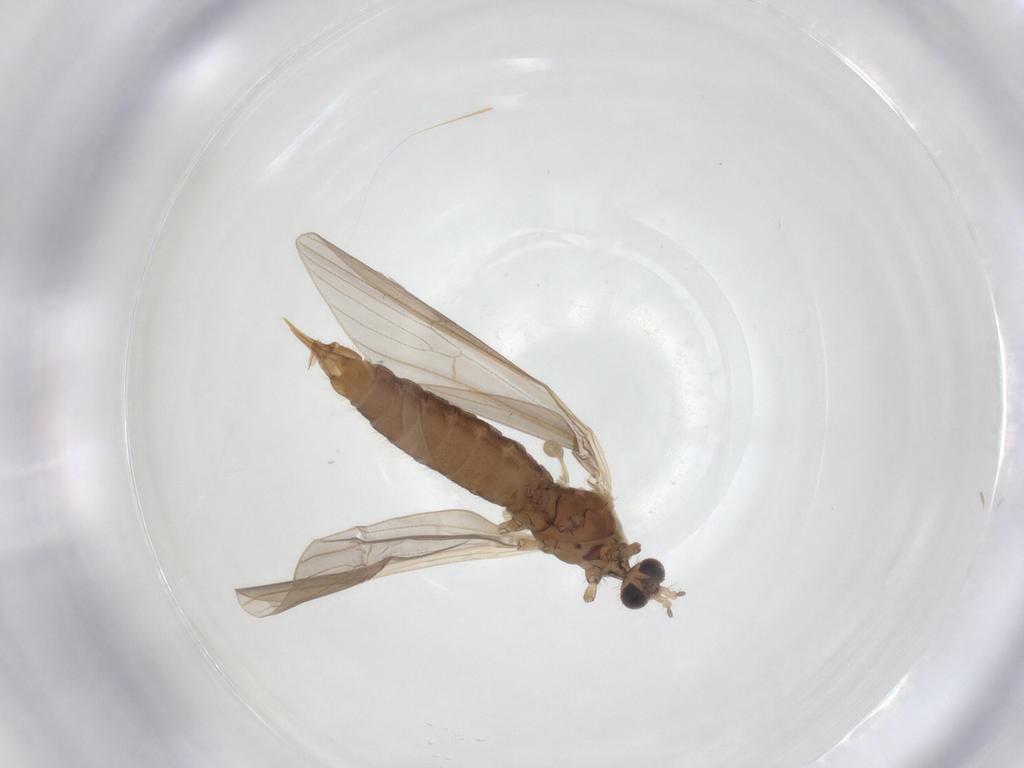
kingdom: Animalia
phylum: Arthropoda
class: Insecta
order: Diptera
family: Limoniidae
